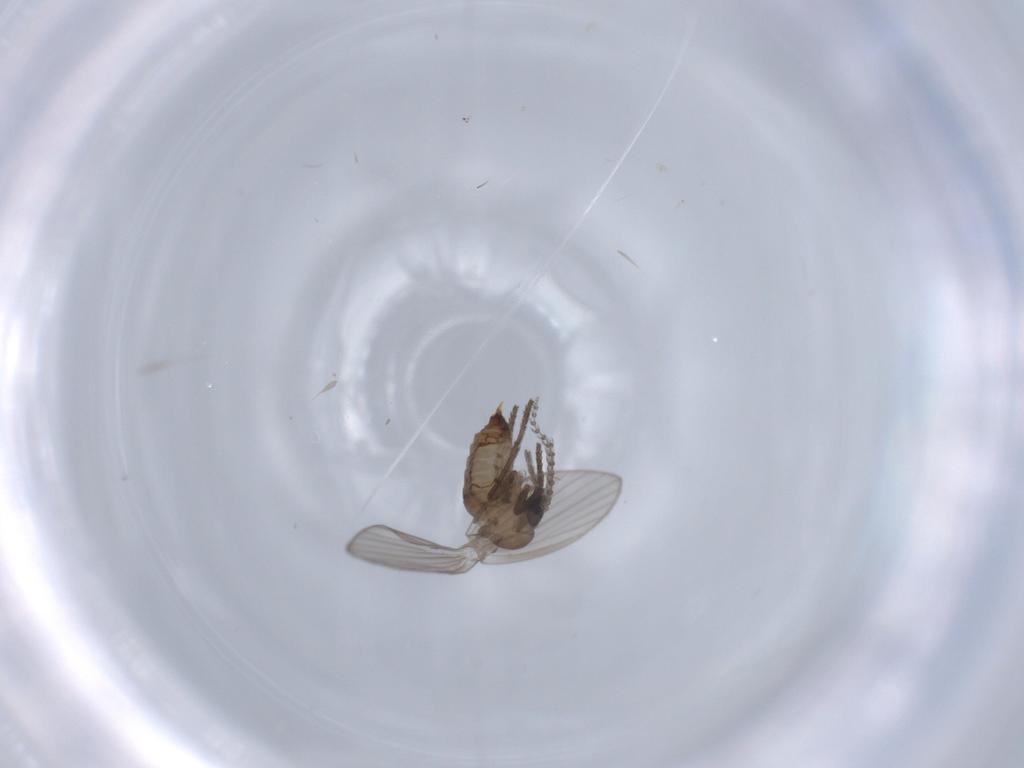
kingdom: Animalia
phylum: Arthropoda
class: Insecta
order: Diptera
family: Psychodidae
